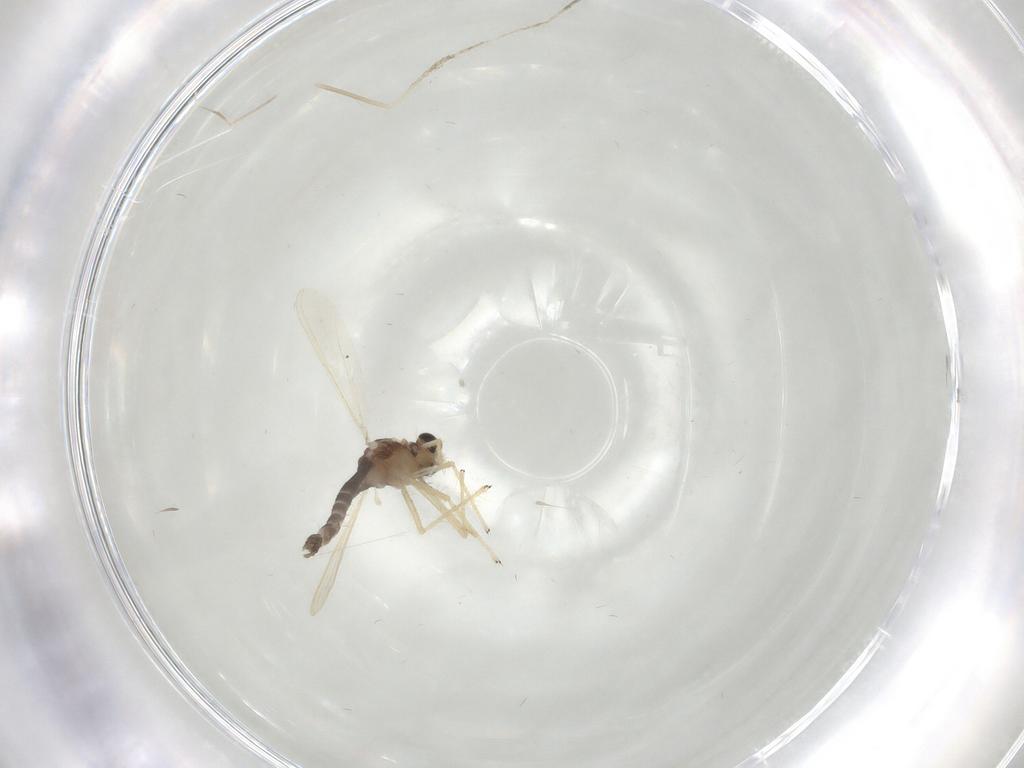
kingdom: Animalia
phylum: Arthropoda
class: Insecta
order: Diptera
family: Chironomidae
